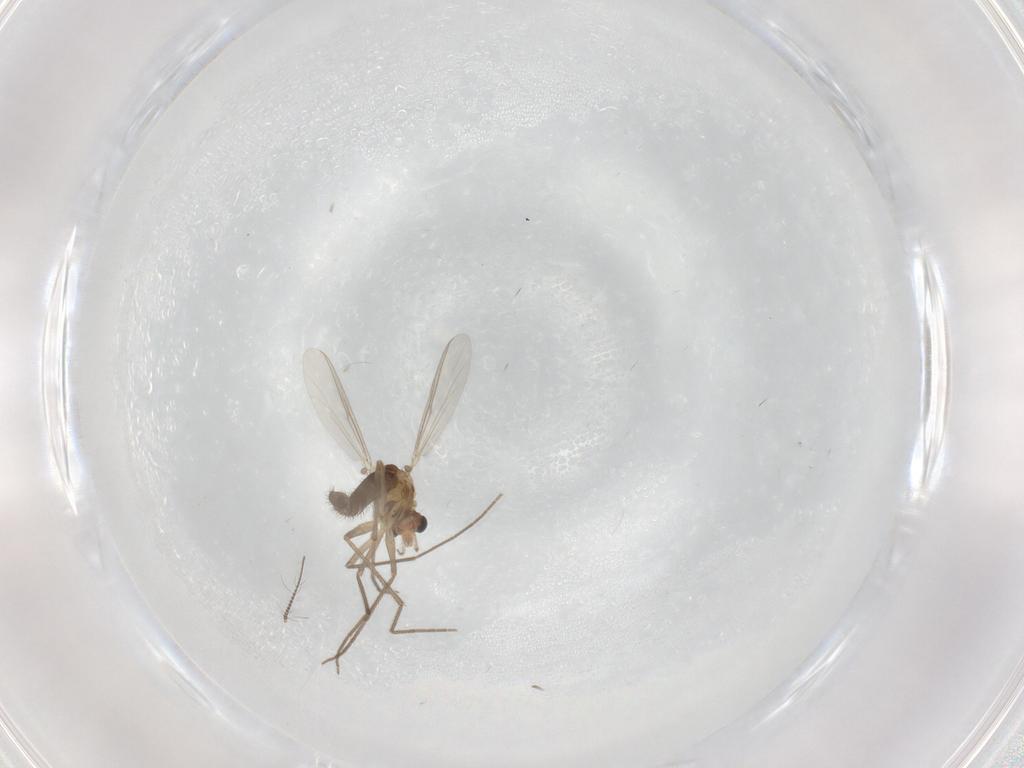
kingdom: Animalia
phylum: Arthropoda
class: Insecta
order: Diptera
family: Chironomidae
